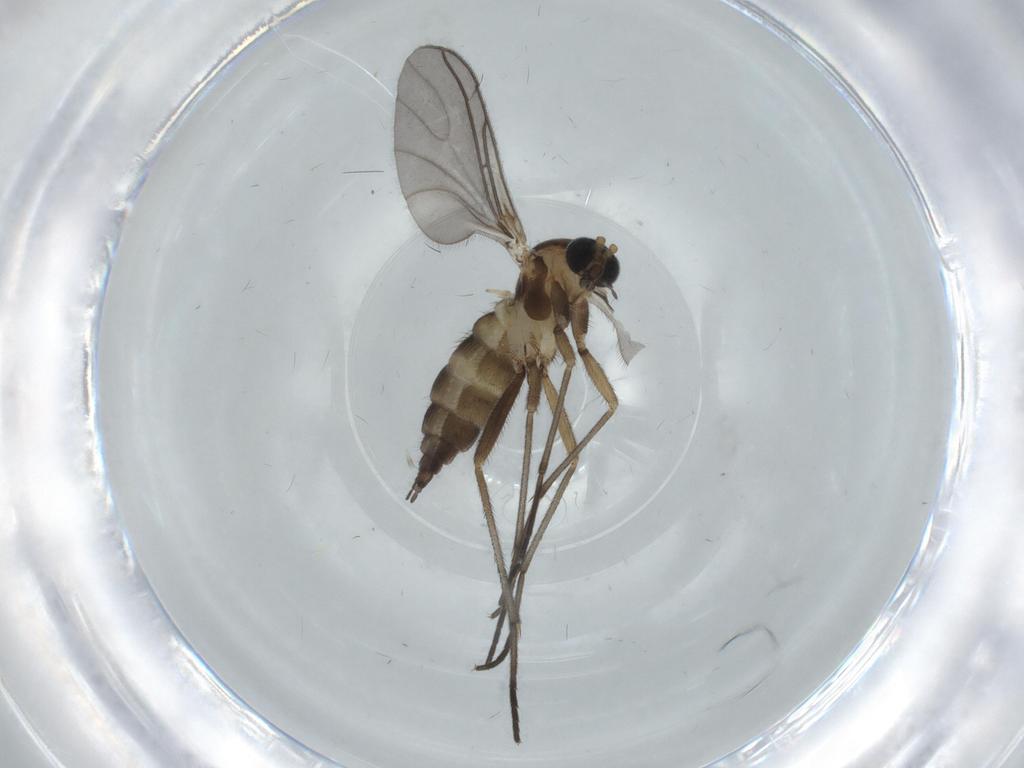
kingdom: Animalia
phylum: Arthropoda
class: Insecta
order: Diptera
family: Sciaridae
